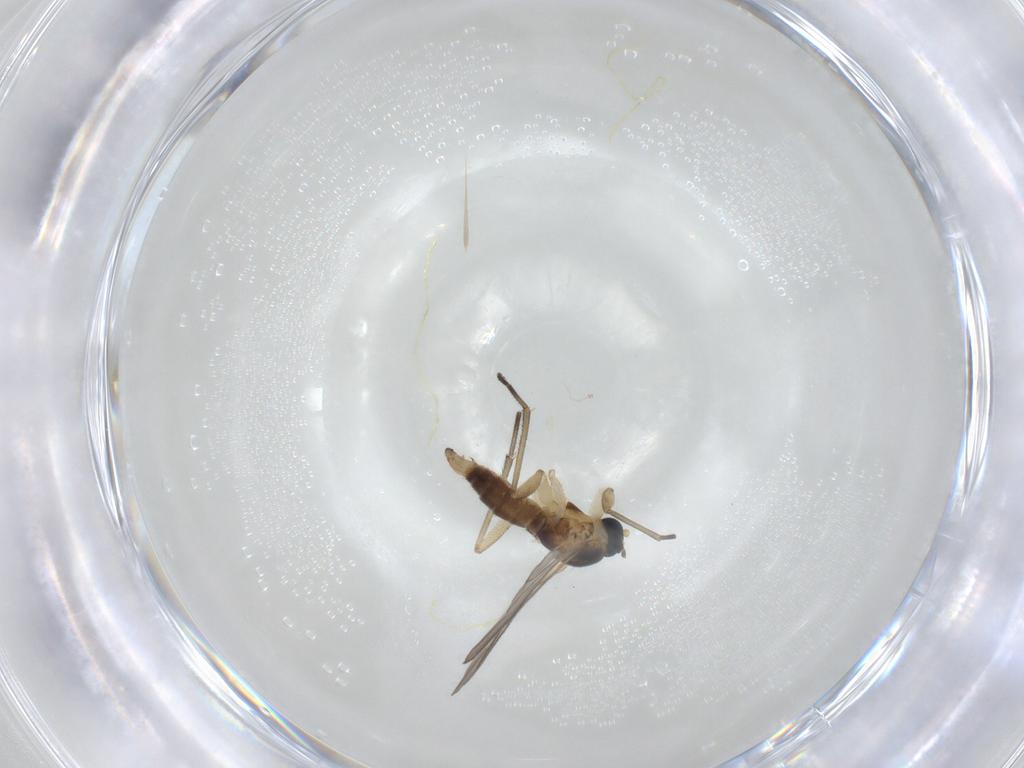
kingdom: Animalia
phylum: Arthropoda
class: Insecta
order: Diptera
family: Sciaridae
